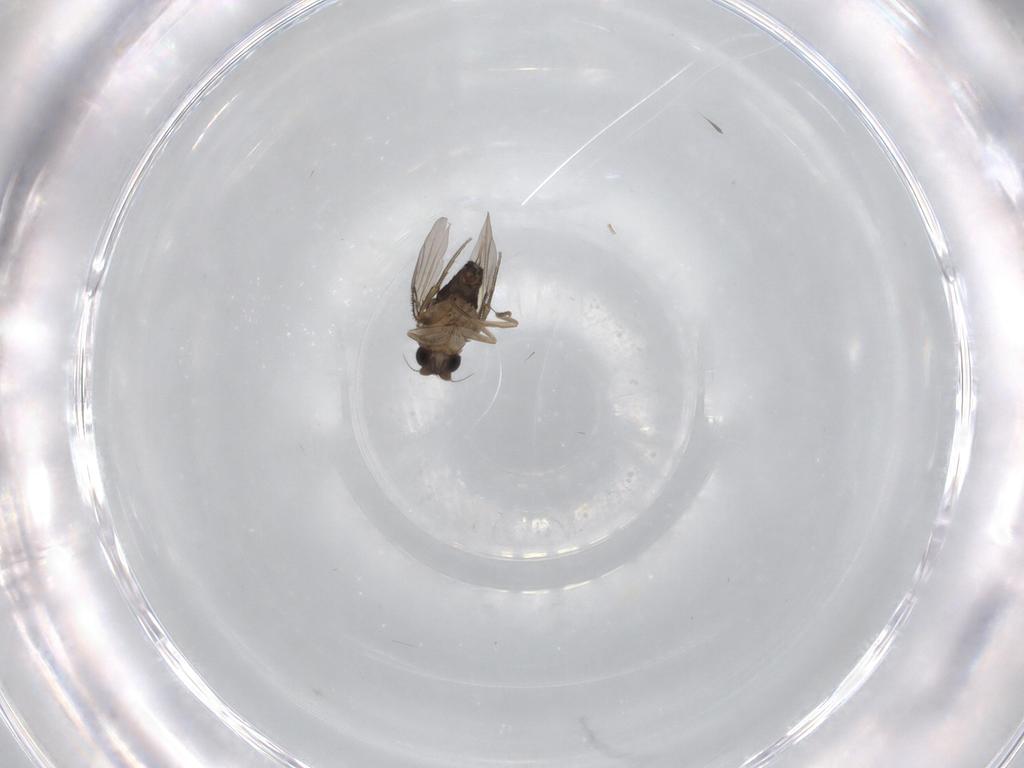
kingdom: Animalia
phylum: Arthropoda
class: Insecta
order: Diptera
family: Phoridae
